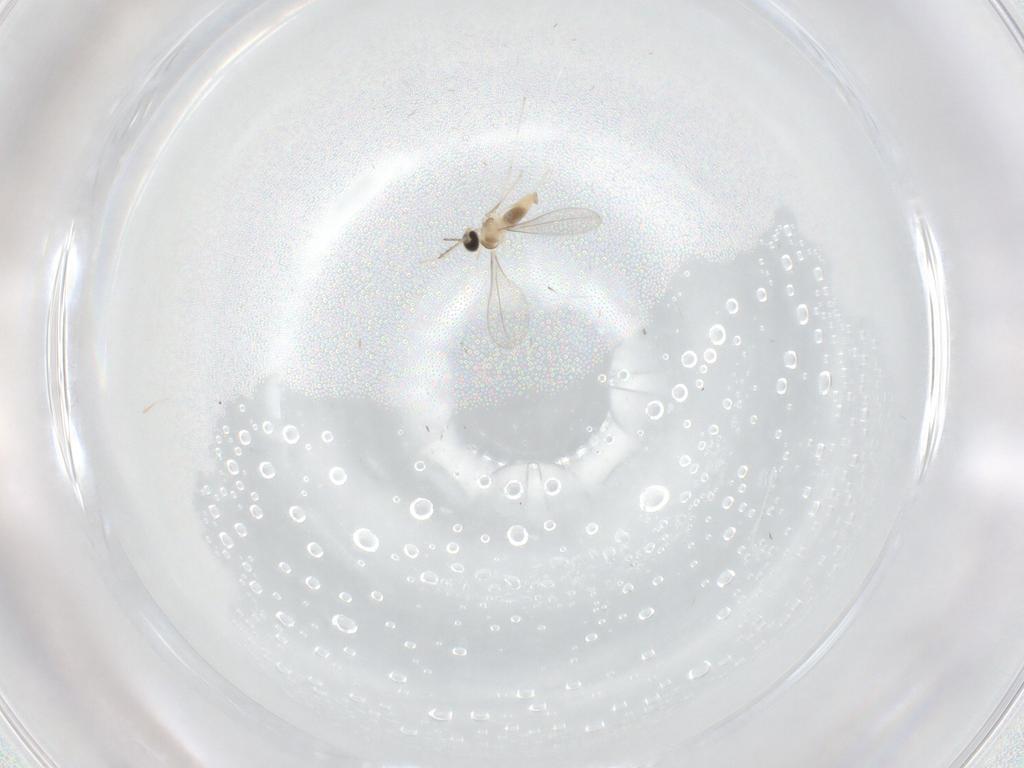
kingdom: Animalia
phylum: Arthropoda
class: Insecta
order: Diptera
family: Cecidomyiidae
